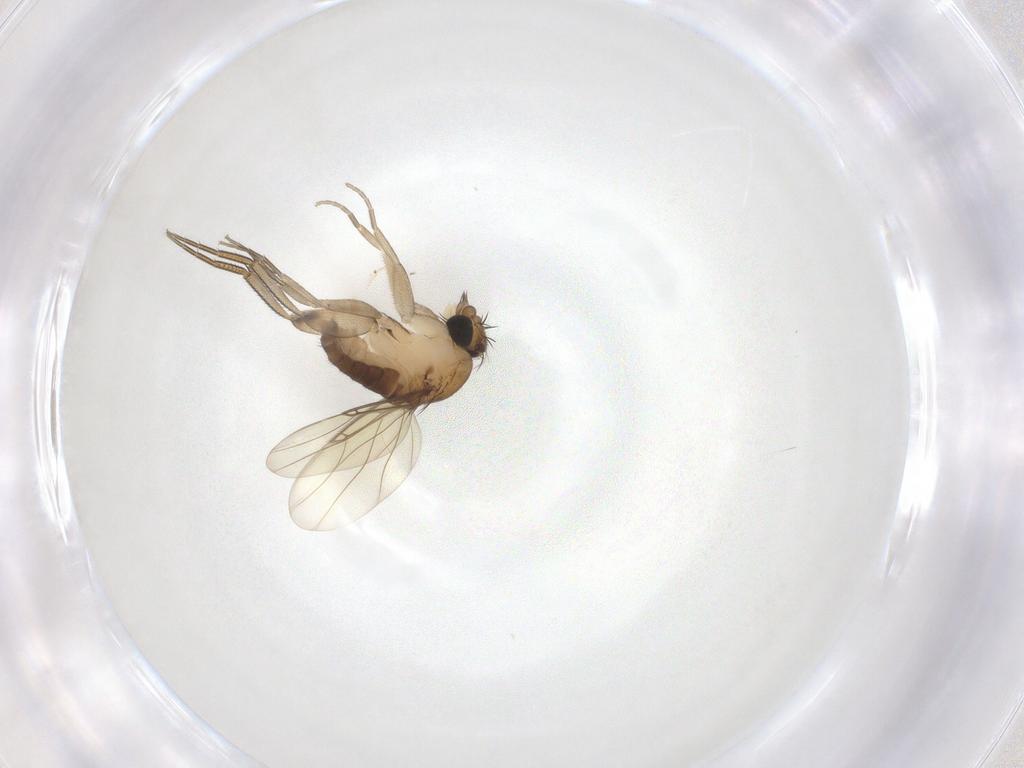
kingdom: Animalia
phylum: Arthropoda
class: Insecta
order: Diptera
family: Phoridae
